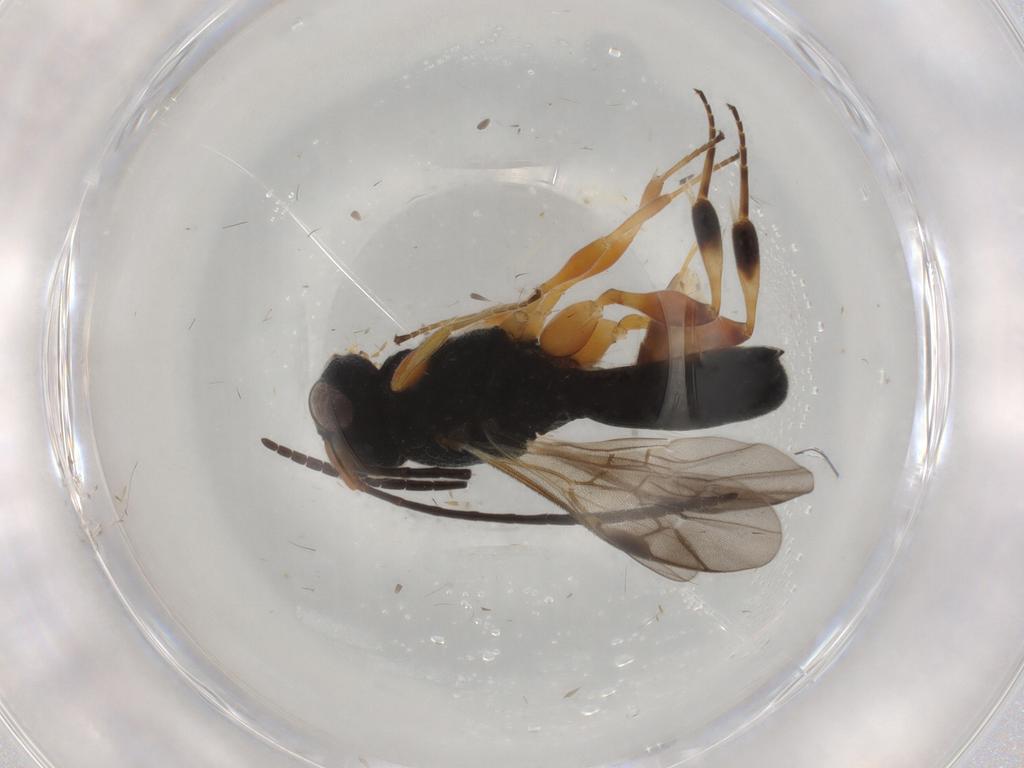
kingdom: Animalia
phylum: Arthropoda
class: Insecta
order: Hymenoptera
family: Braconidae
